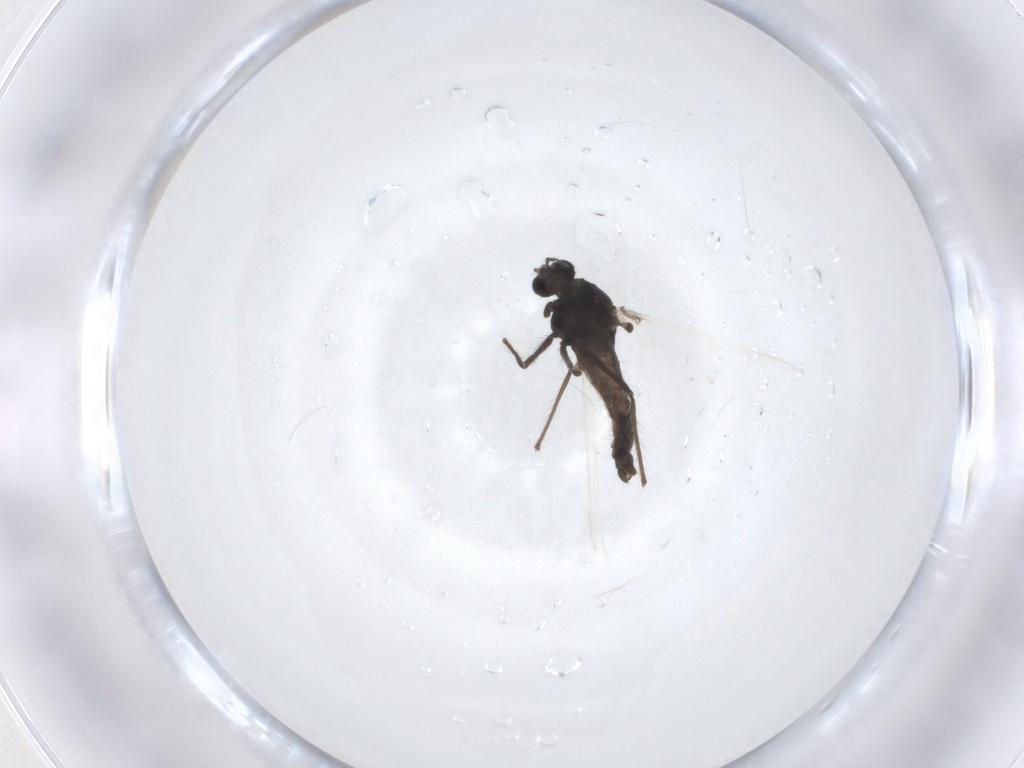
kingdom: Animalia
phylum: Arthropoda
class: Insecta
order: Diptera
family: Chironomidae
